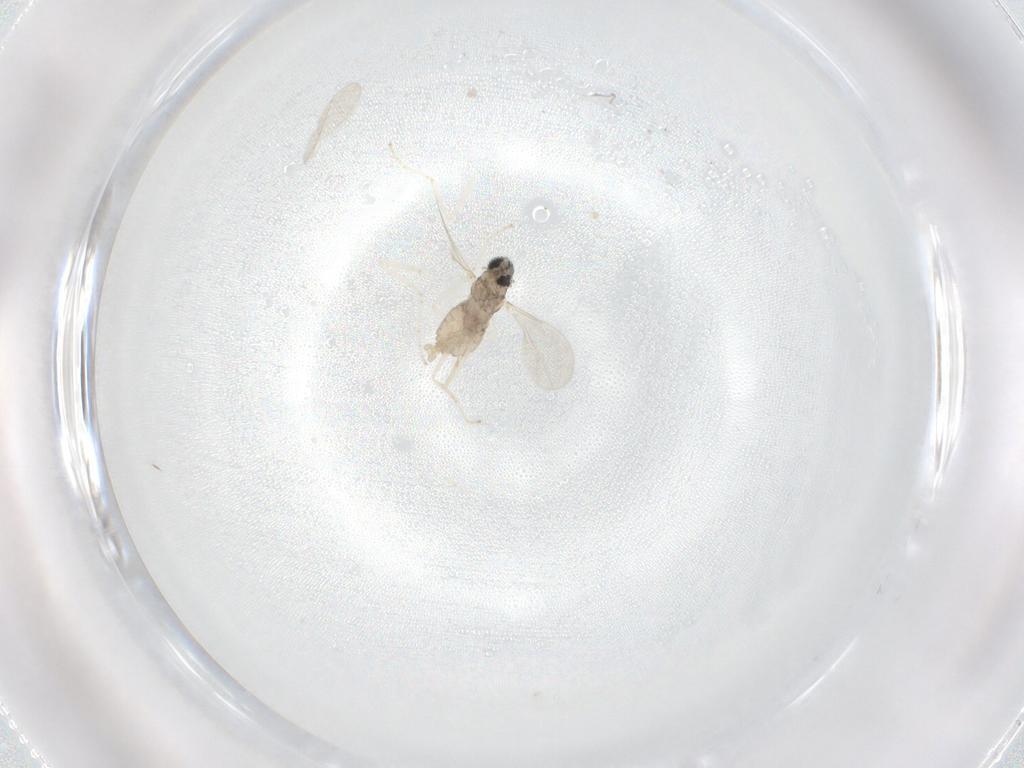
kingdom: Animalia
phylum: Arthropoda
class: Insecta
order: Diptera
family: Cecidomyiidae
